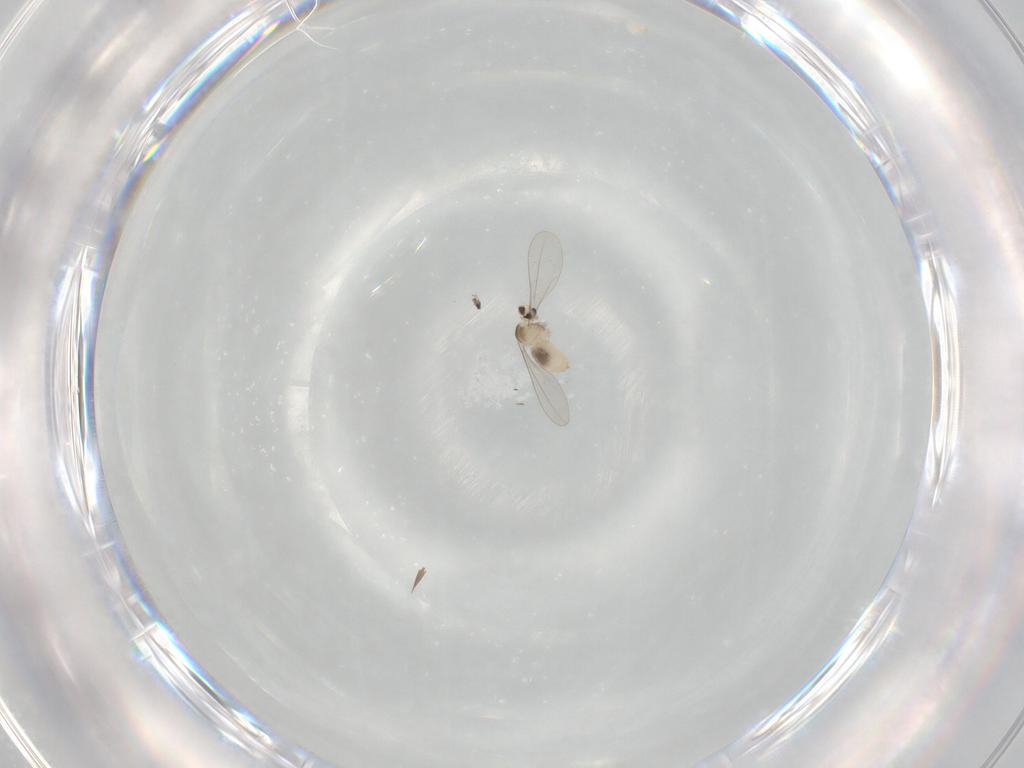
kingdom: Animalia
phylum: Arthropoda
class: Insecta
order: Diptera
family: Cecidomyiidae
